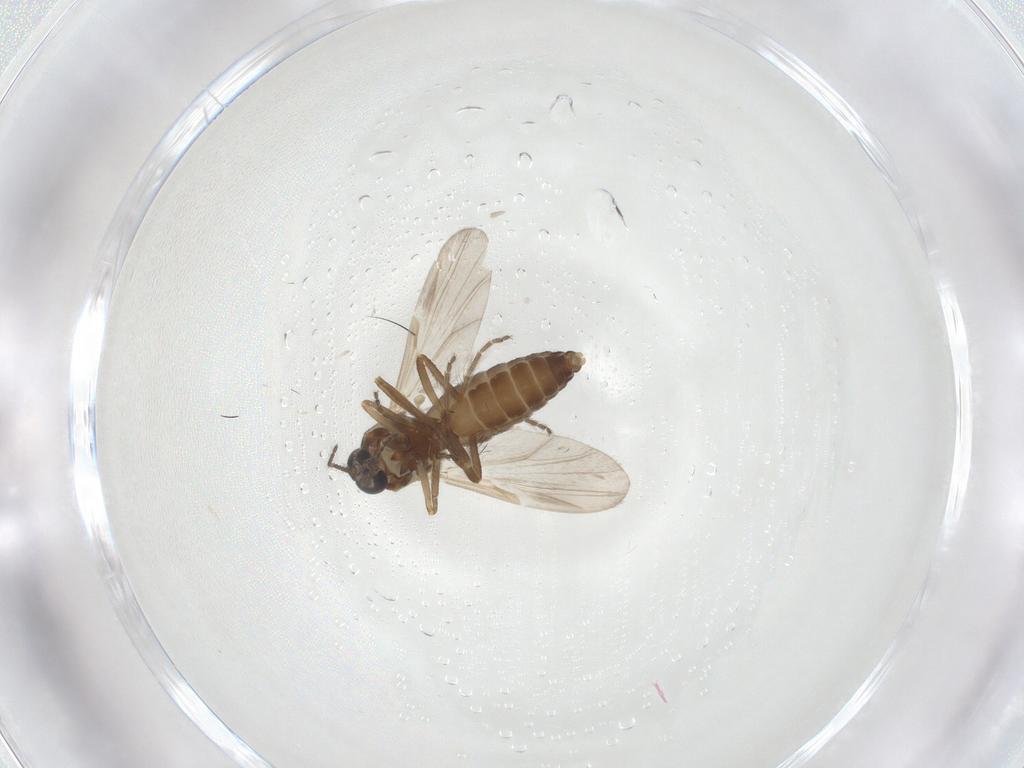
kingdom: Animalia
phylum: Arthropoda
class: Insecta
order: Diptera
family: Ceratopogonidae
